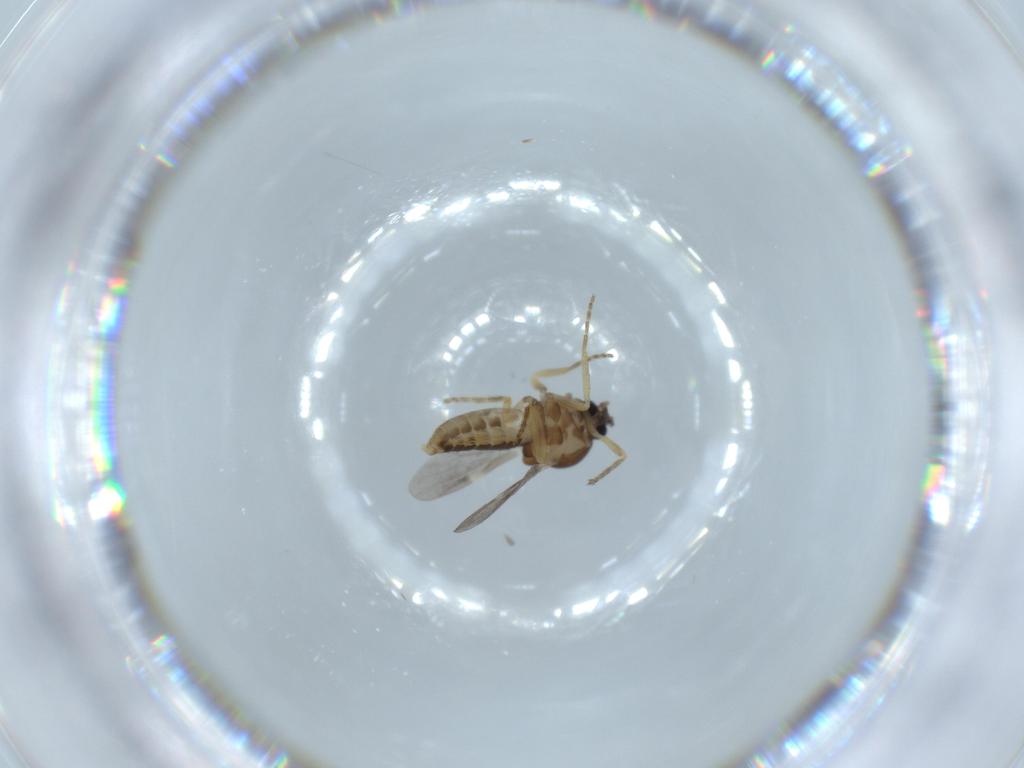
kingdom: Animalia
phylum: Arthropoda
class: Insecta
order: Diptera
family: Ceratopogonidae
